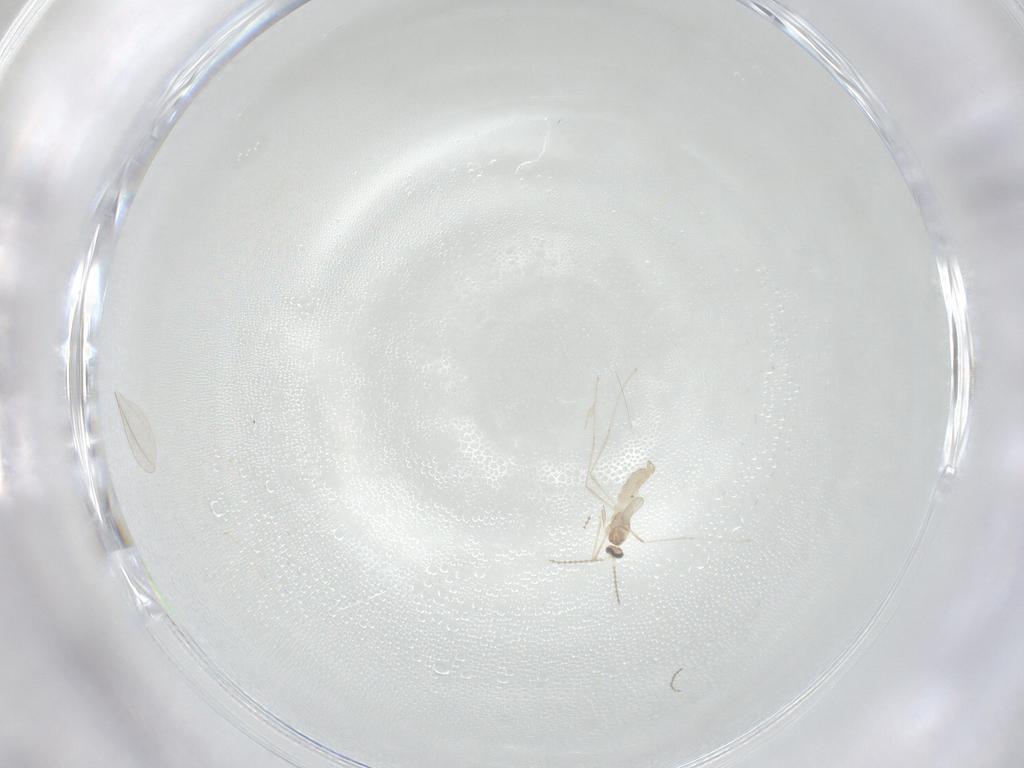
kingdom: Animalia
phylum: Arthropoda
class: Insecta
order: Diptera
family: Cecidomyiidae
